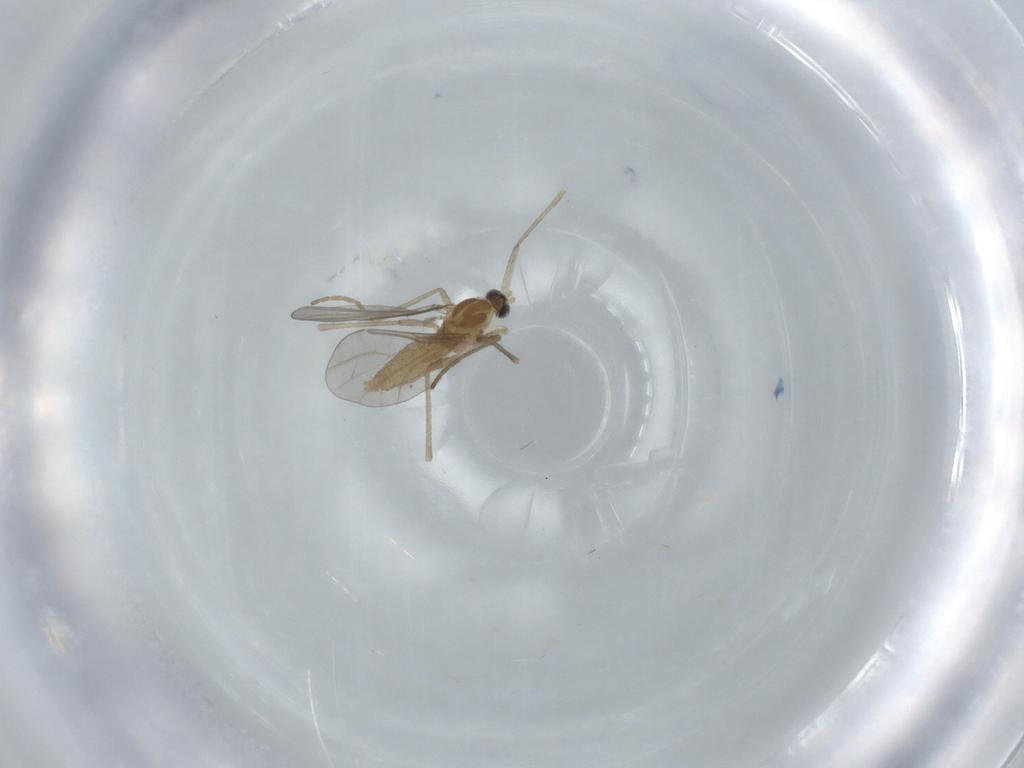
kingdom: Animalia
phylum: Arthropoda
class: Insecta
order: Diptera
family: Cecidomyiidae
